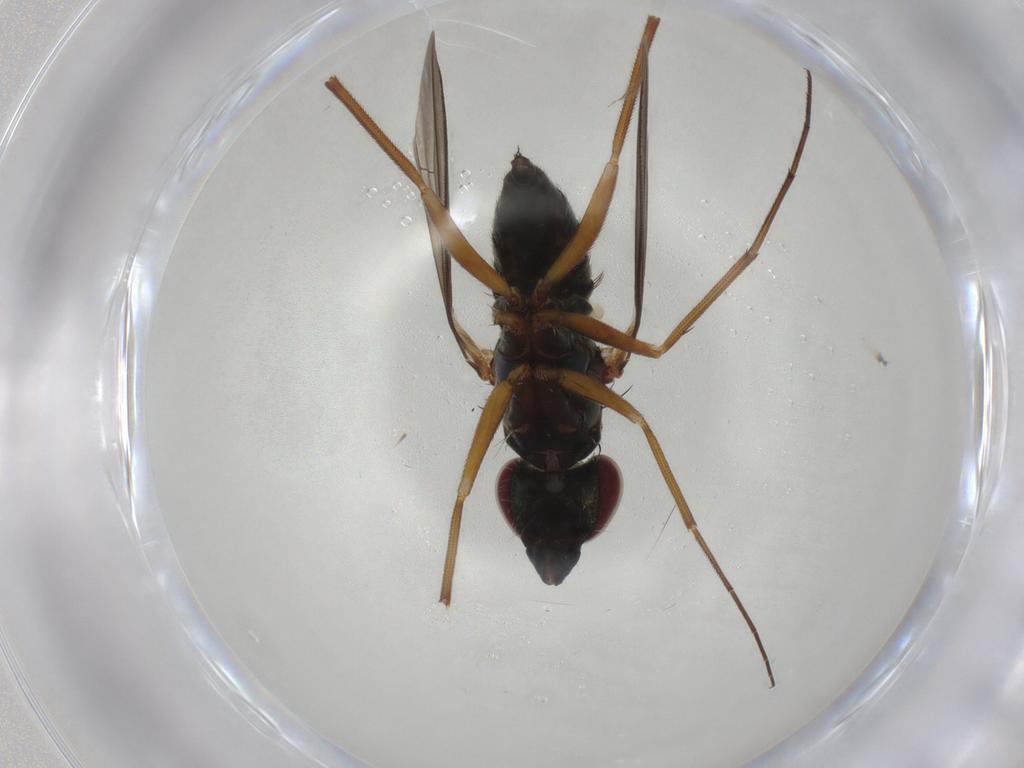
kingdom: Animalia
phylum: Arthropoda
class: Insecta
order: Diptera
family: Dolichopodidae
